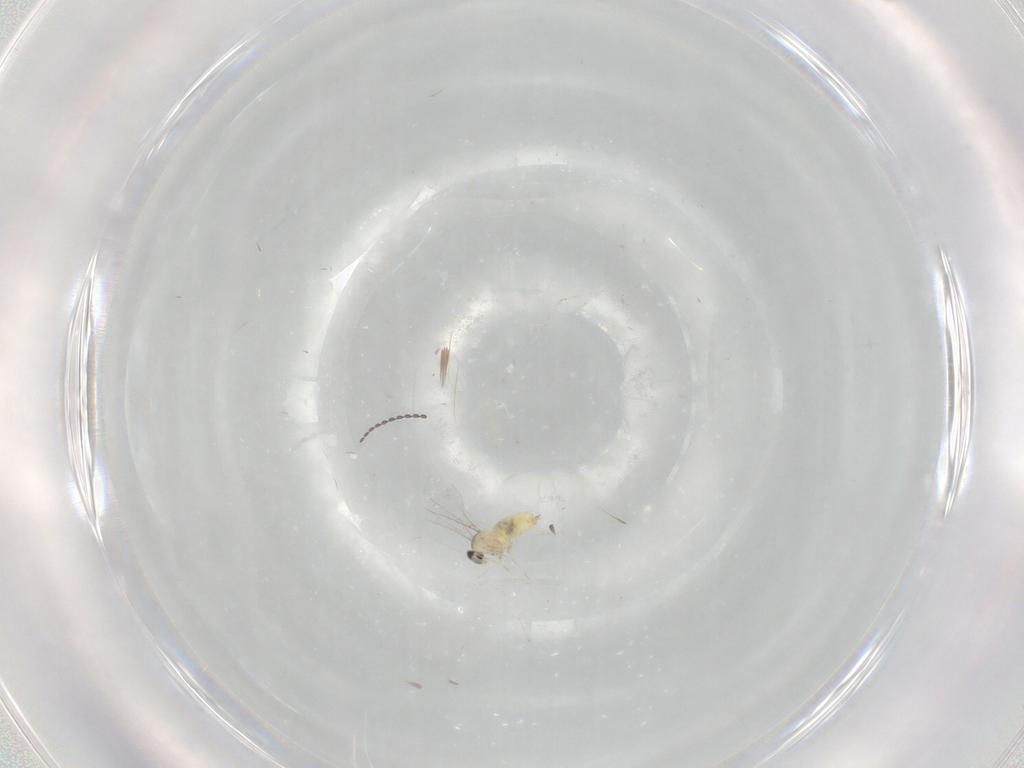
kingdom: Animalia
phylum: Arthropoda
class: Insecta
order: Diptera
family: Cecidomyiidae
